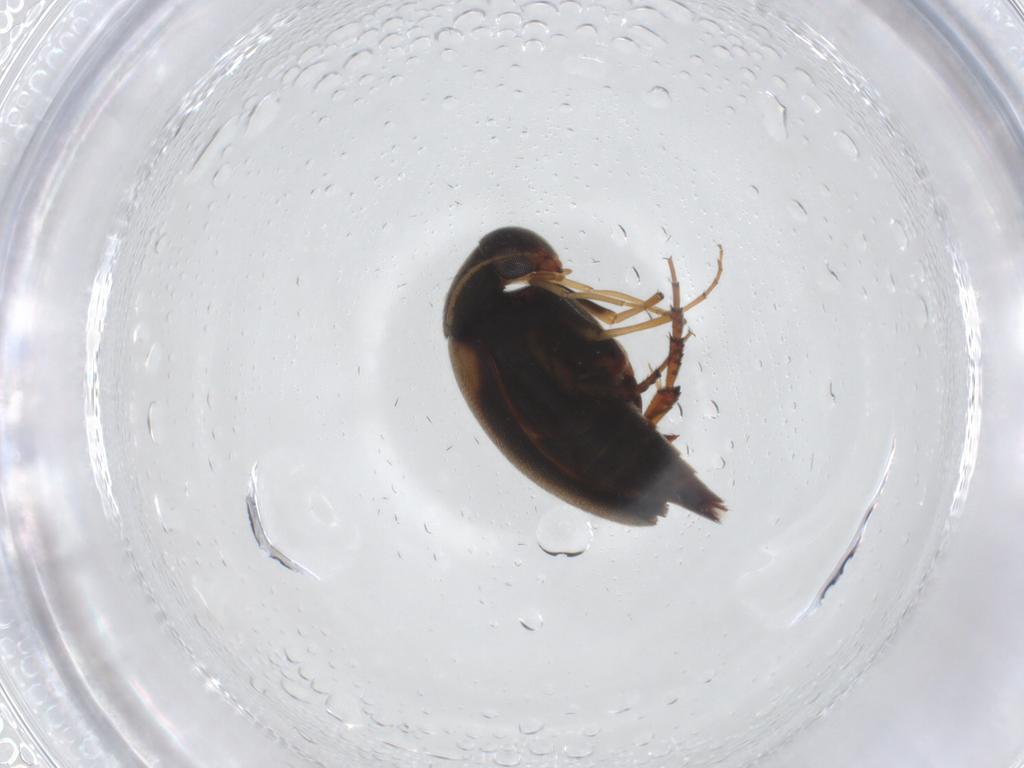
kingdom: Animalia
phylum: Arthropoda
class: Insecta
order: Coleoptera
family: Mordellidae
